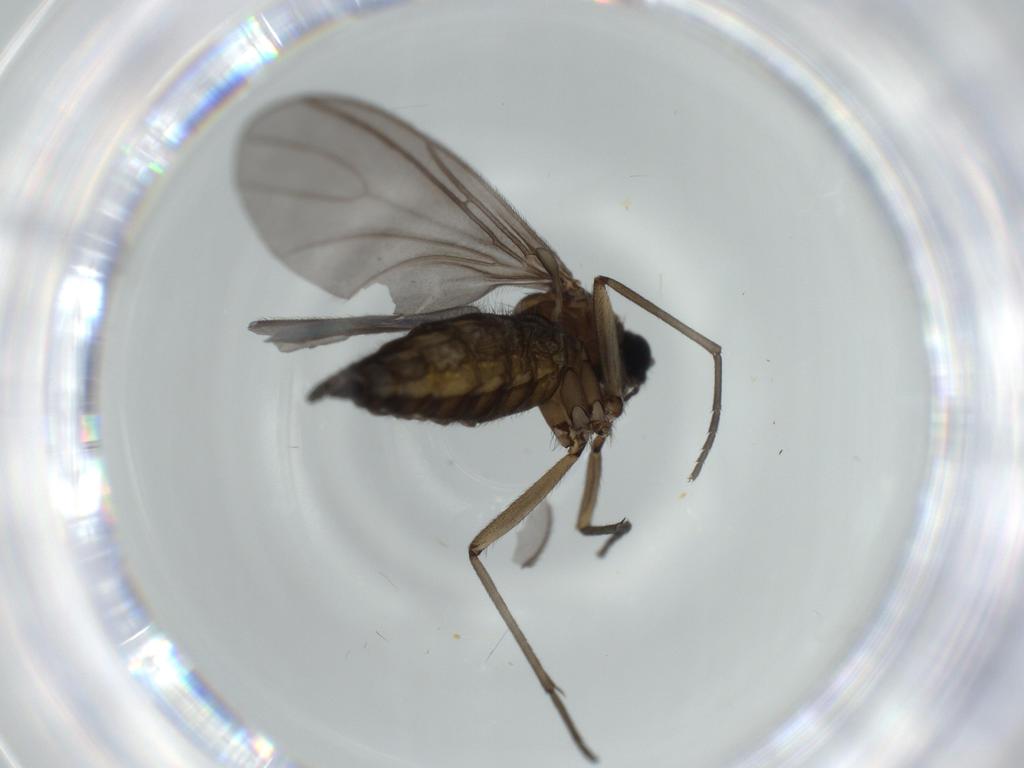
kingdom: Animalia
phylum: Arthropoda
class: Insecta
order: Diptera
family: Sciaridae
